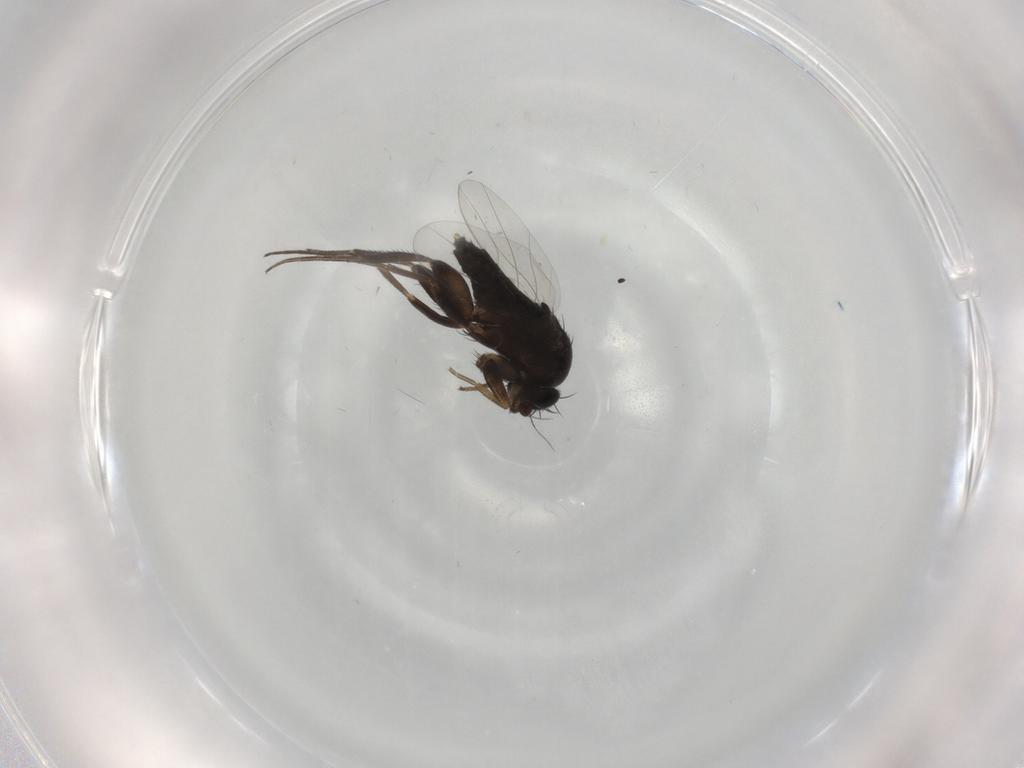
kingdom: Animalia
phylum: Arthropoda
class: Insecta
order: Diptera
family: Phoridae
